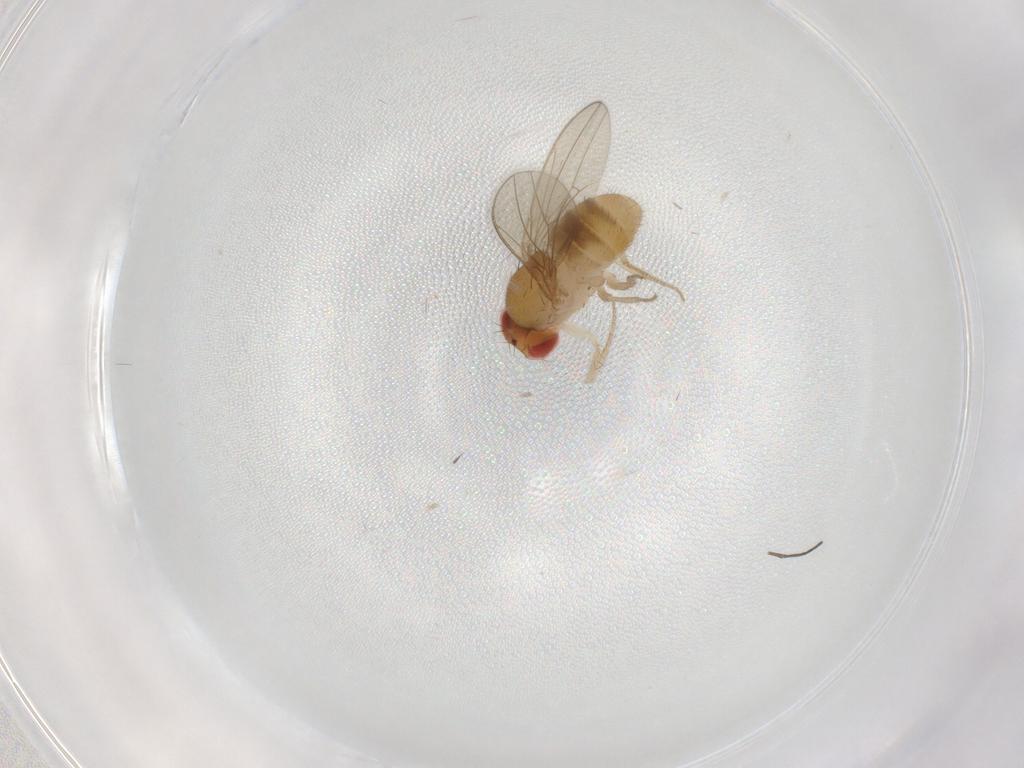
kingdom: Animalia
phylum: Arthropoda
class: Insecta
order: Diptera
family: Drosophilidae
